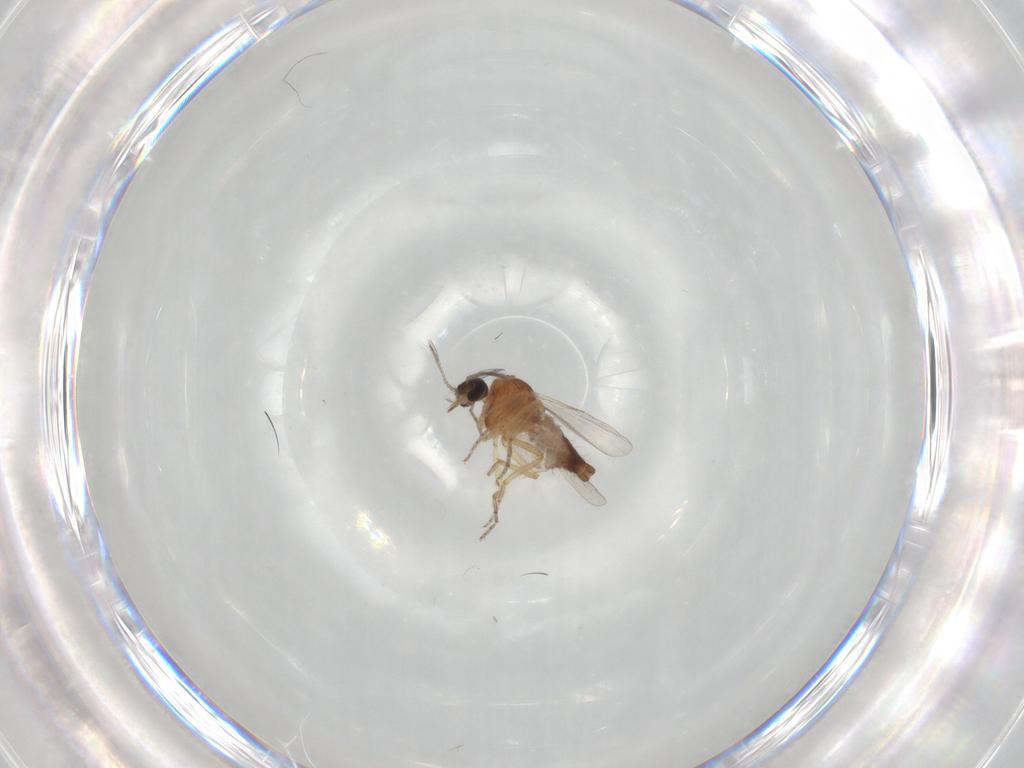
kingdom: Animalia
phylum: Arthropoda
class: Insecta
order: Diptera
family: Ceratopogonidae
